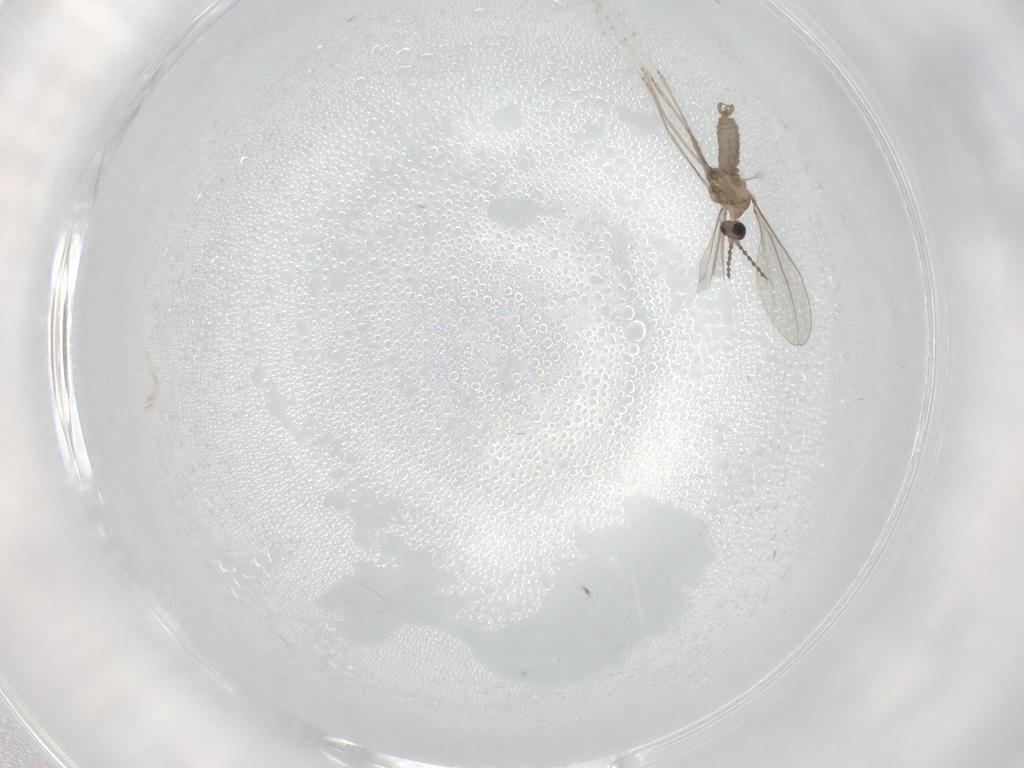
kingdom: Animalia
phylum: Arthropoda
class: Insecta
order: Diptera
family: Cecidomyiidae
